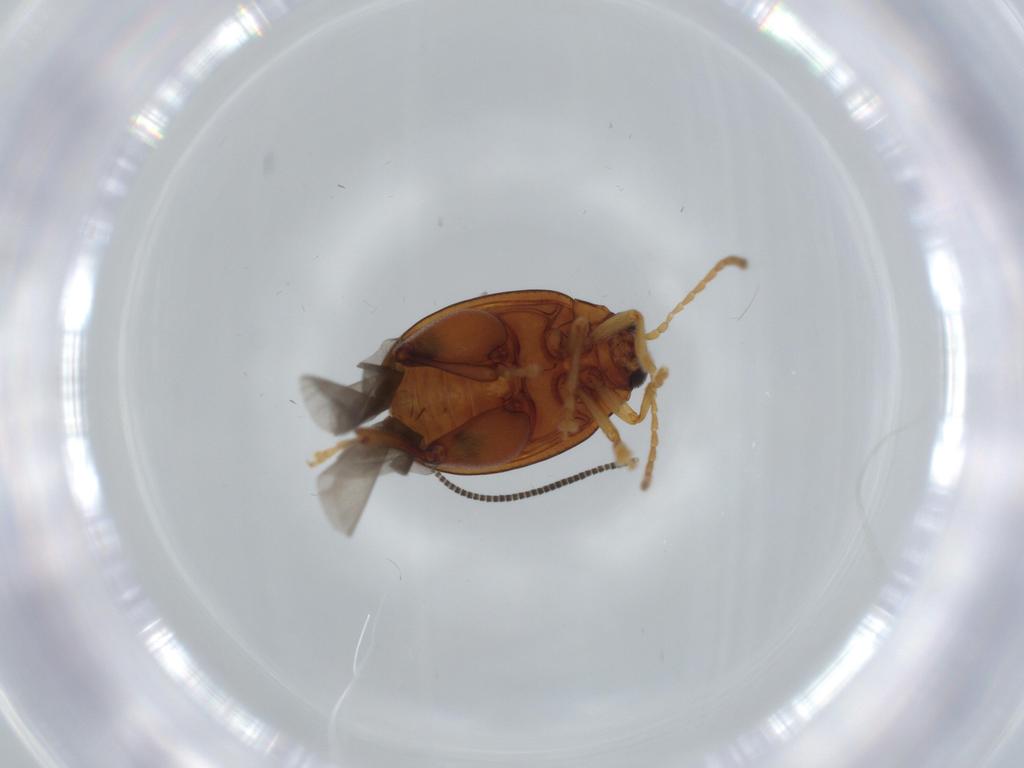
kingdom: Animalia
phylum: Arthropoda
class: Insecta
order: Coleoptera
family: Chrysomelidae
